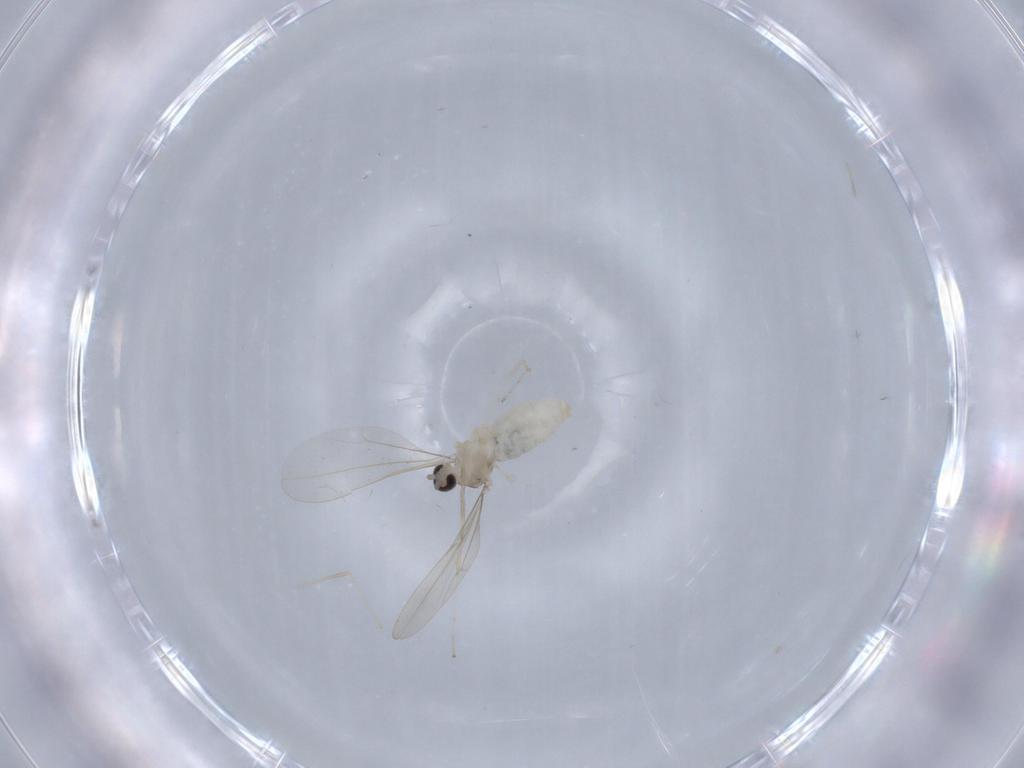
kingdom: Animalia
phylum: Arthropoda
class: Insecta
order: Diptera
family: Cecidomyiidae
